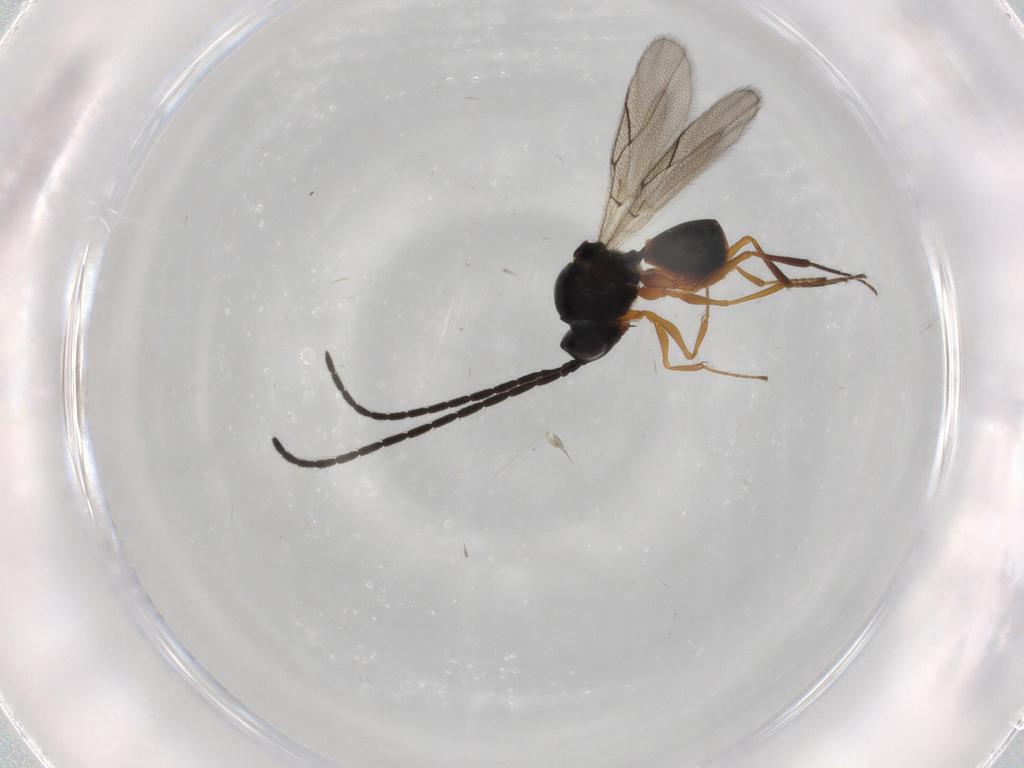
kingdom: Animalia
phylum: Arthropoda
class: Insecta
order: Hymenoptera
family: Figitidae
